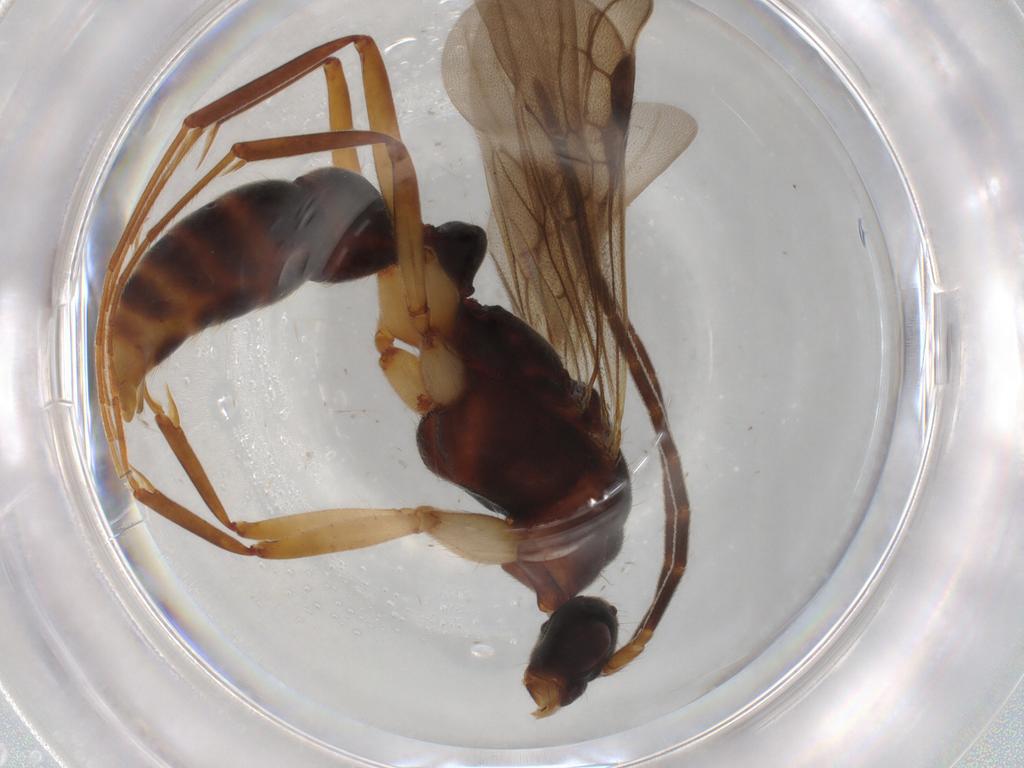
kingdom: Animalia
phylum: Arthropoda
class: Insecta
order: Hymenoptera
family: Formicidae
